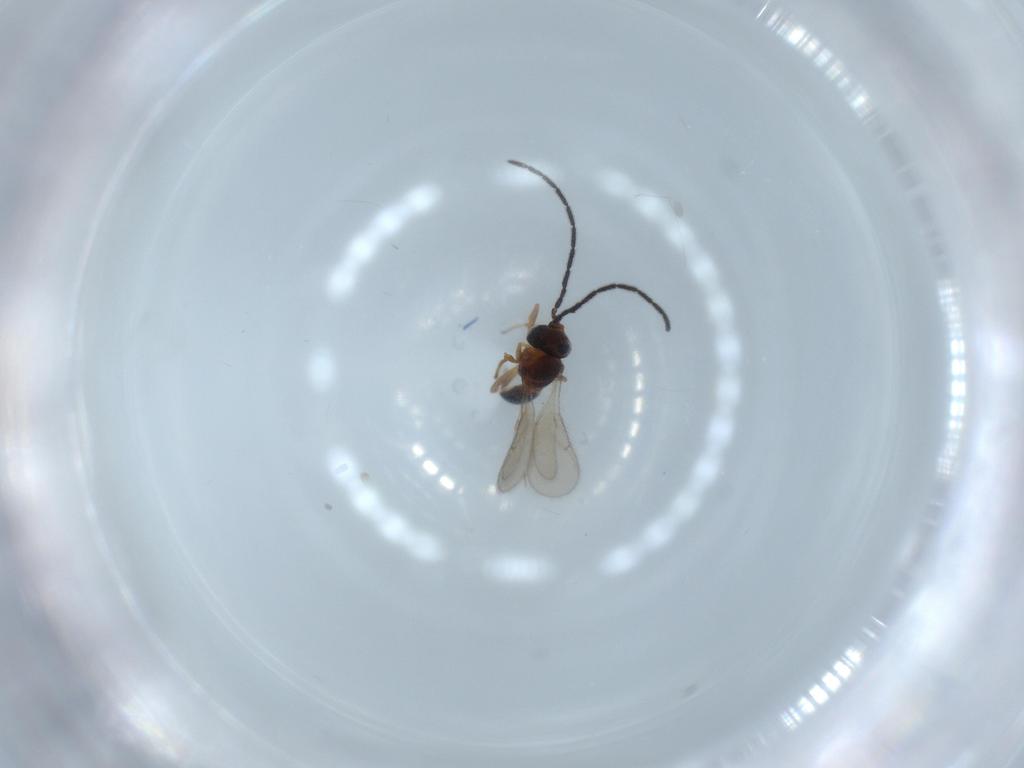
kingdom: Animalia
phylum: Arthropoda
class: Insecta
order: Hymenoptera
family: Scelionidae
